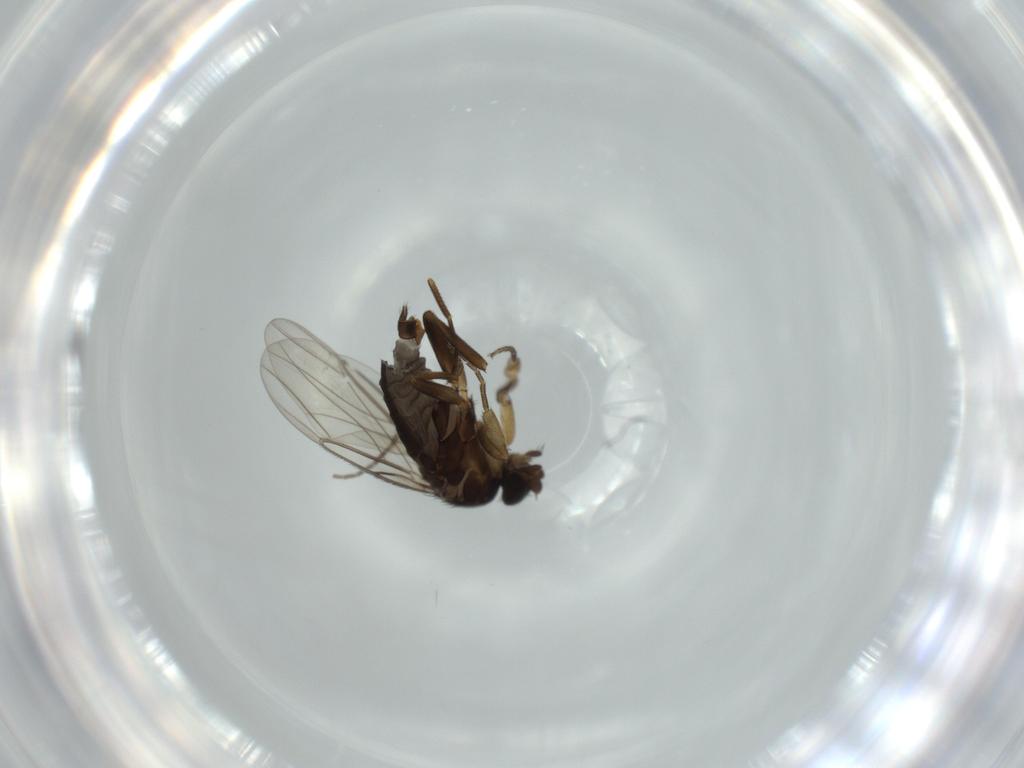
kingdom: Animalia
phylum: Arthropoda
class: Insecta
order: Diptera
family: Phoridae
